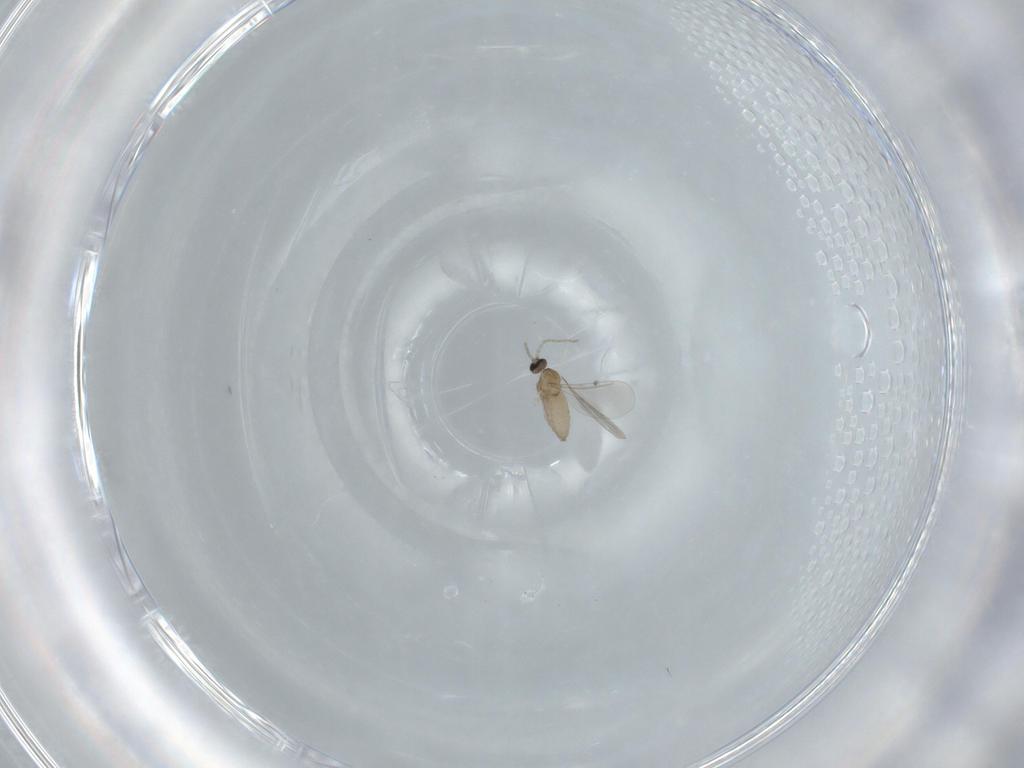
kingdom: Animalia
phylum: Arthropoda
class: Insecta
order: Diptera
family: Cecidomyiidae
